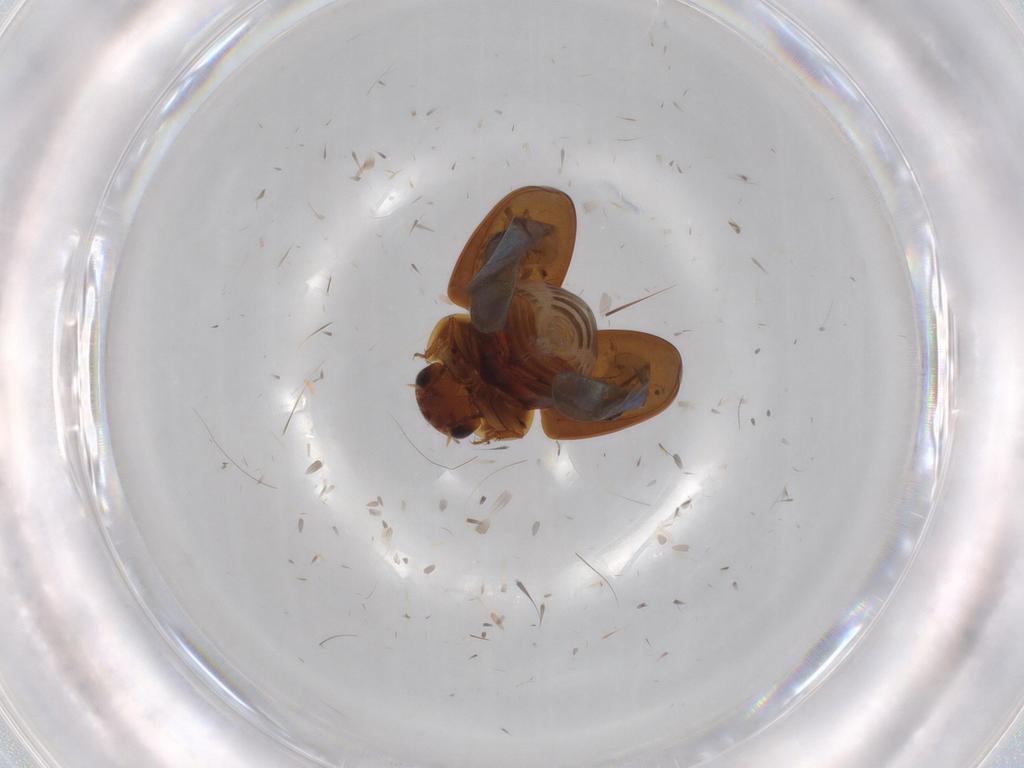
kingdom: Animalia
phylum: Arthropoda
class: Insecta
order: Coleoptera
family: Leiodidae
